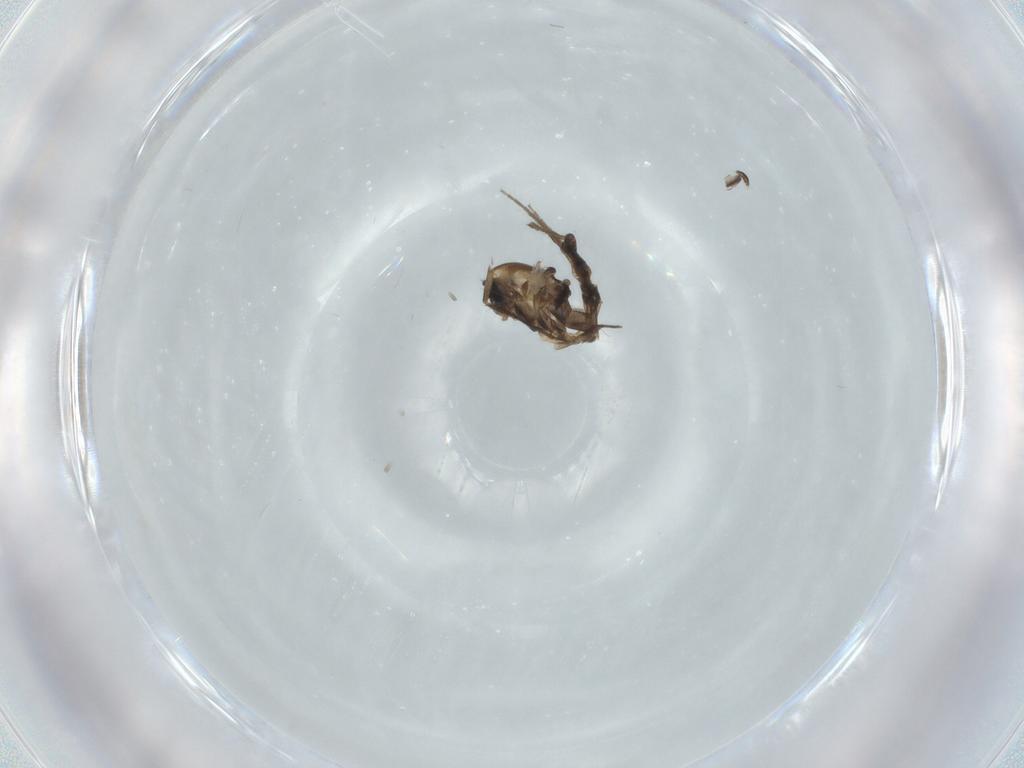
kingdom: Animalia
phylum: Arthropoda
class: Insecta
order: Diptera
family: Chironomidae
